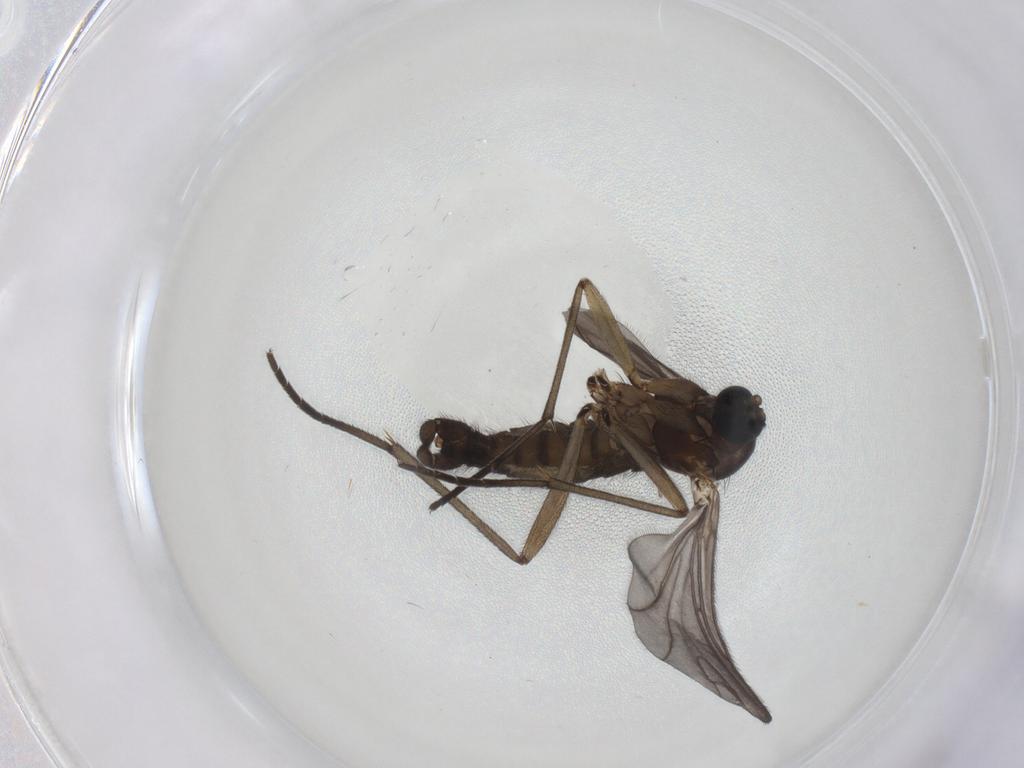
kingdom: Animalia
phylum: Arthropoda
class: Insecta
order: Diptera
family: Sciaridae
